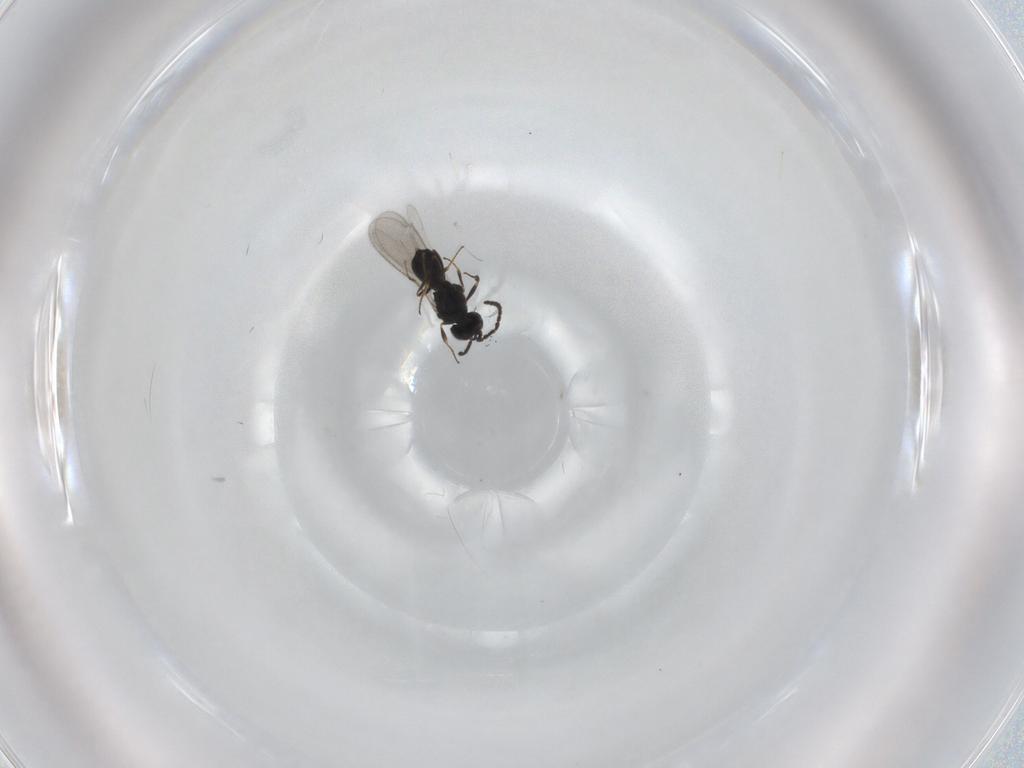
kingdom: Animalia
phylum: Arthropoda
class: Insecta
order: Hymenoptera
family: Scelionidae
